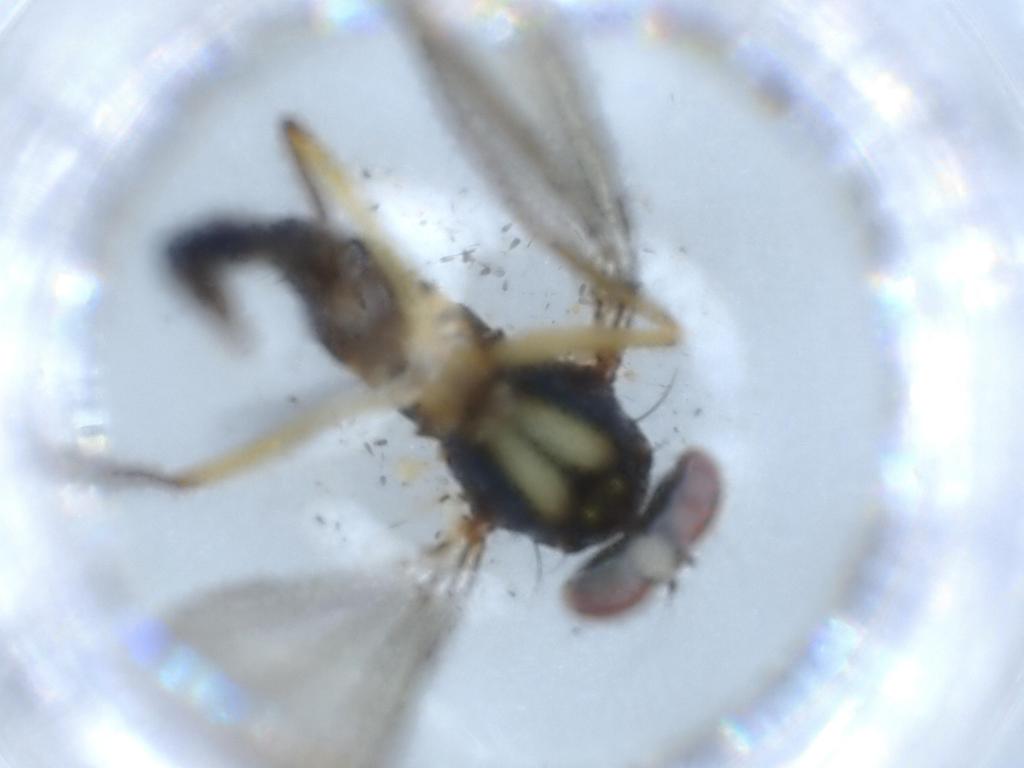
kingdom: Animalia
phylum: Arthropoda
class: Insecta
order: Diptera
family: Dolichopodidae
